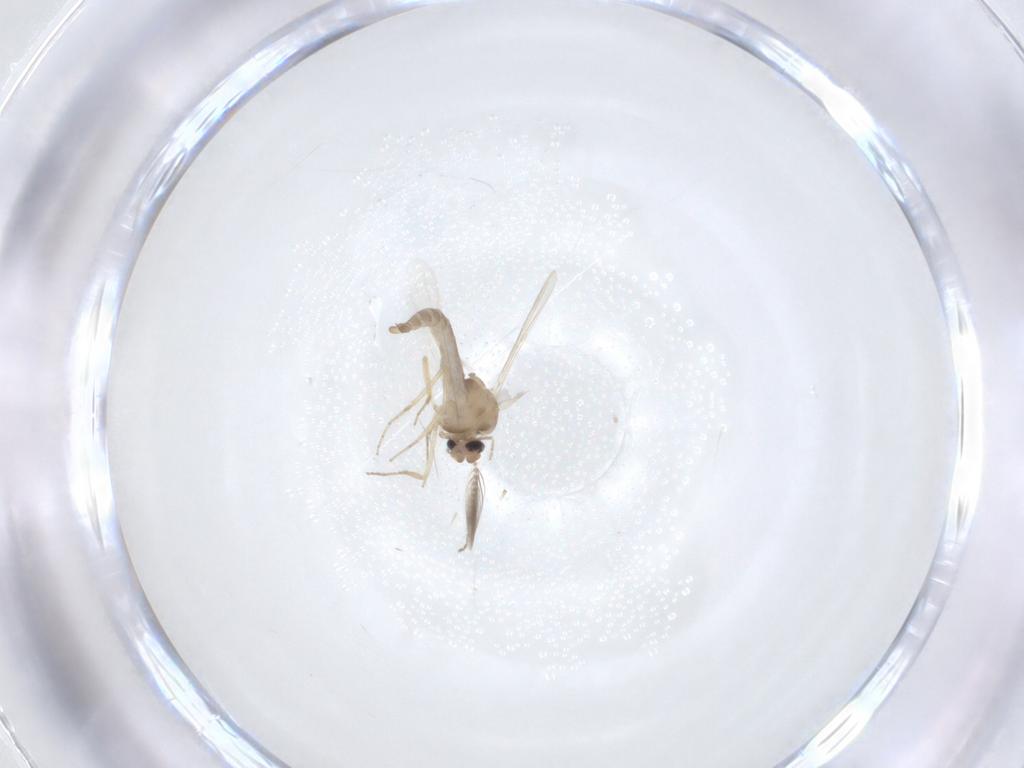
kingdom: Animalia
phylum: Arthropoda
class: Insecta
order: Diptera
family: Ceratopogonidae
